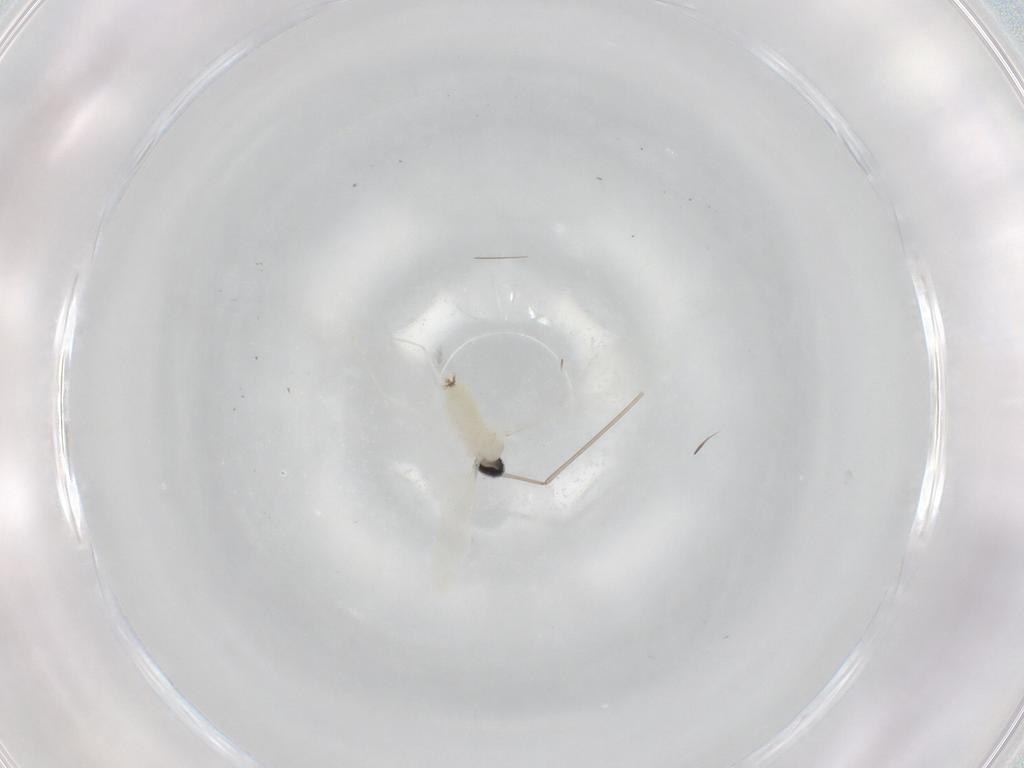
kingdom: Animalia
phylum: Arthropoda
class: Insecta
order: Diptera
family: Cecidomyiidae
